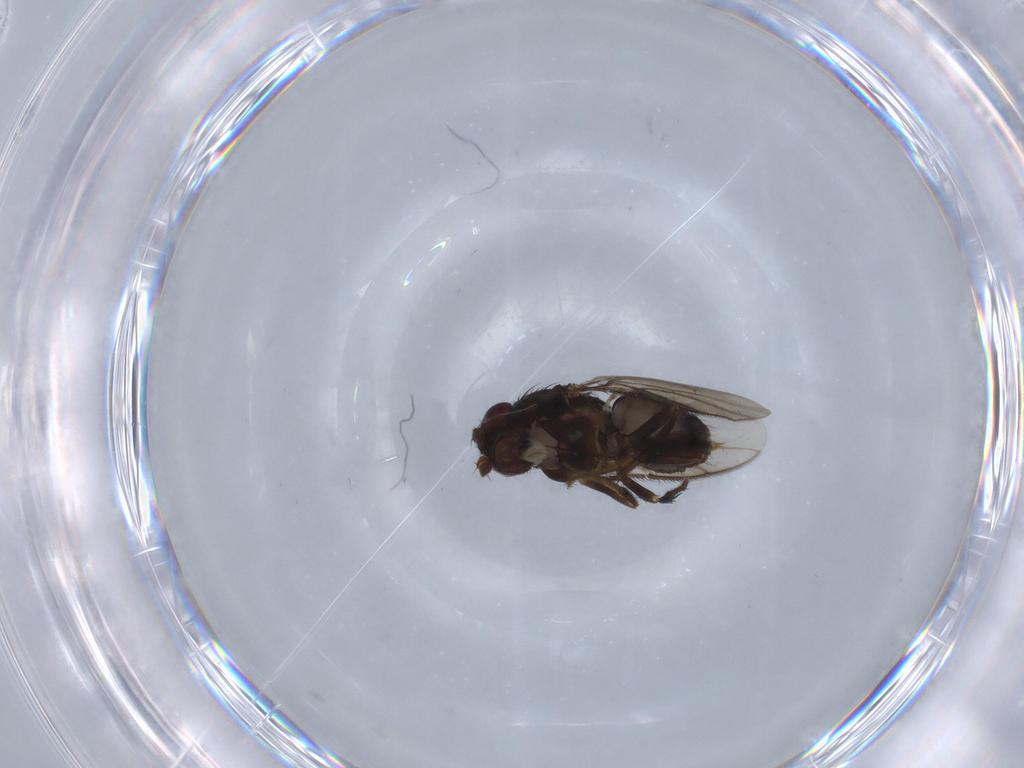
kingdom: Animalia
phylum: Arthropoda
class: Insecta
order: Diptera
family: Sphaeroceridae
